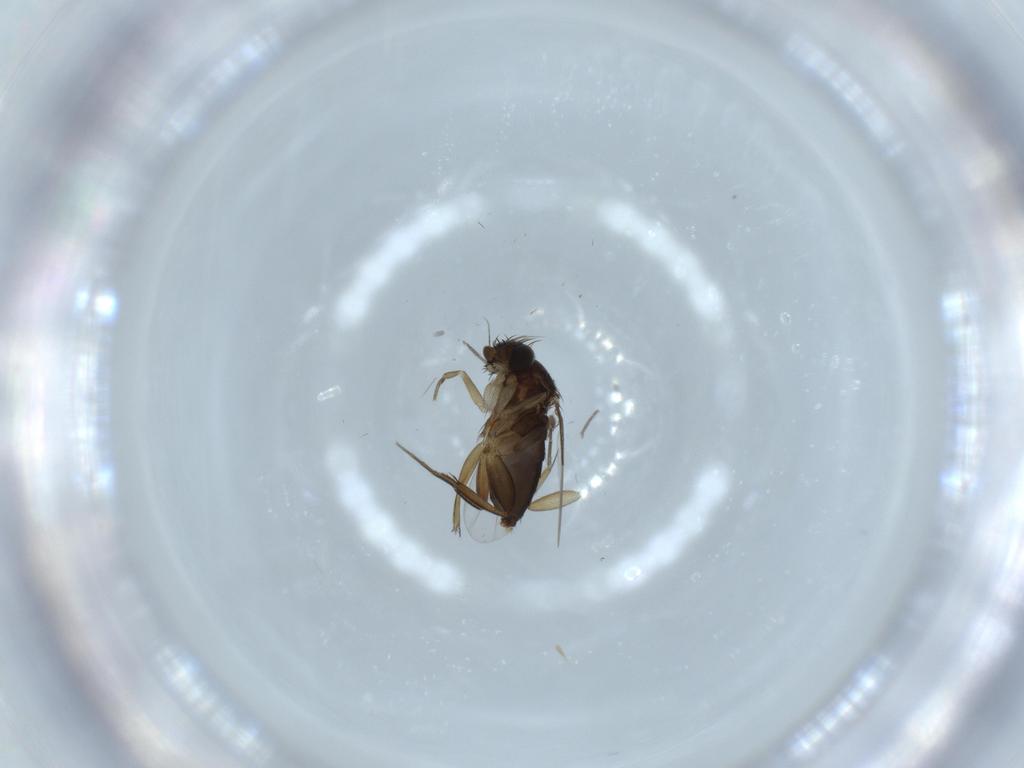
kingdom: Animalia
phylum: Arthropoda
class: Insecta
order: Diptera
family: Phoridae
